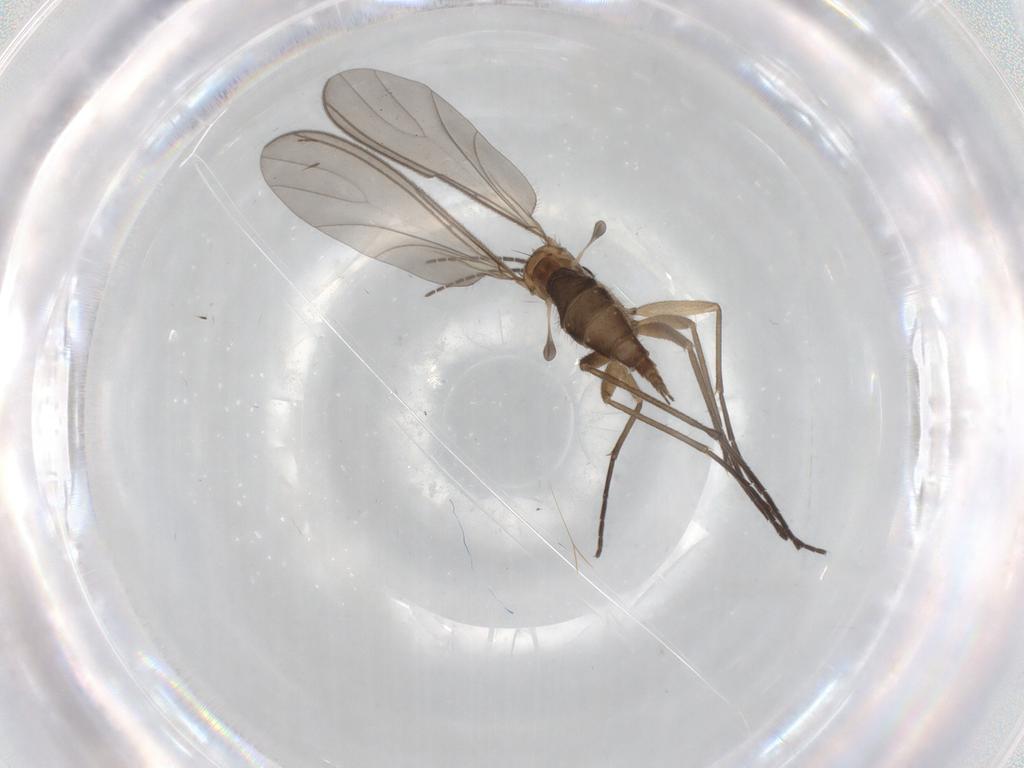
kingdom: Animalia
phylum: Arthropoda
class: Insecta
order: Diptera
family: Sciaridae
